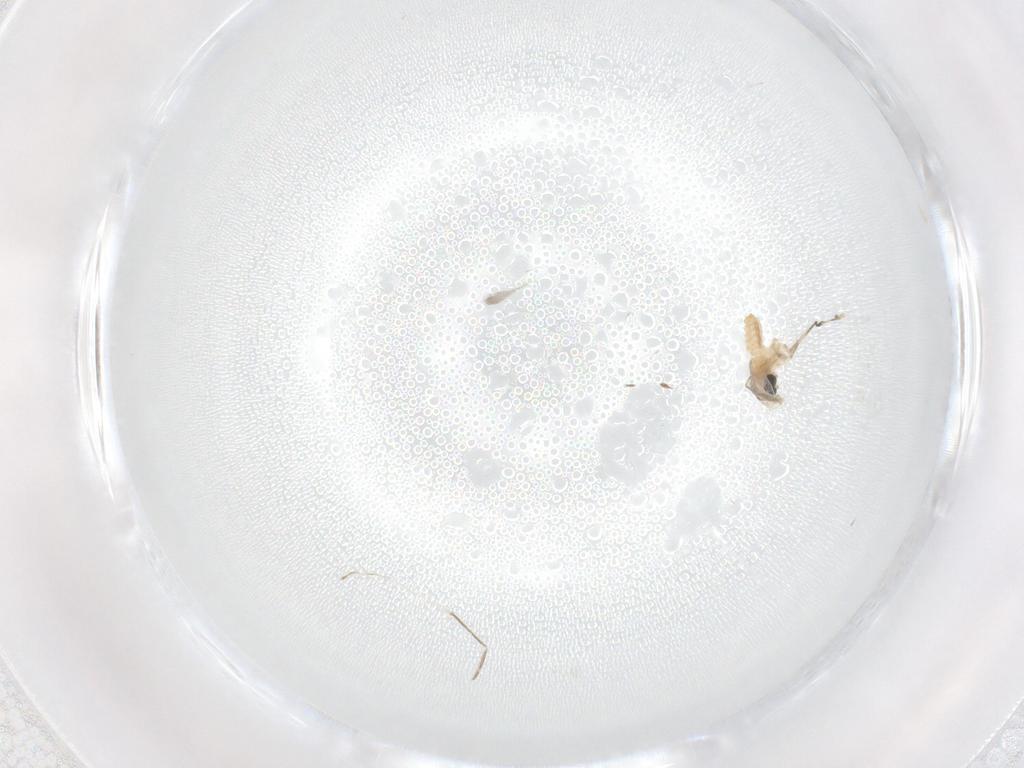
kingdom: Animalia
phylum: Arthropoda
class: Insecta
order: Diptera
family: Cecidomyiidae
